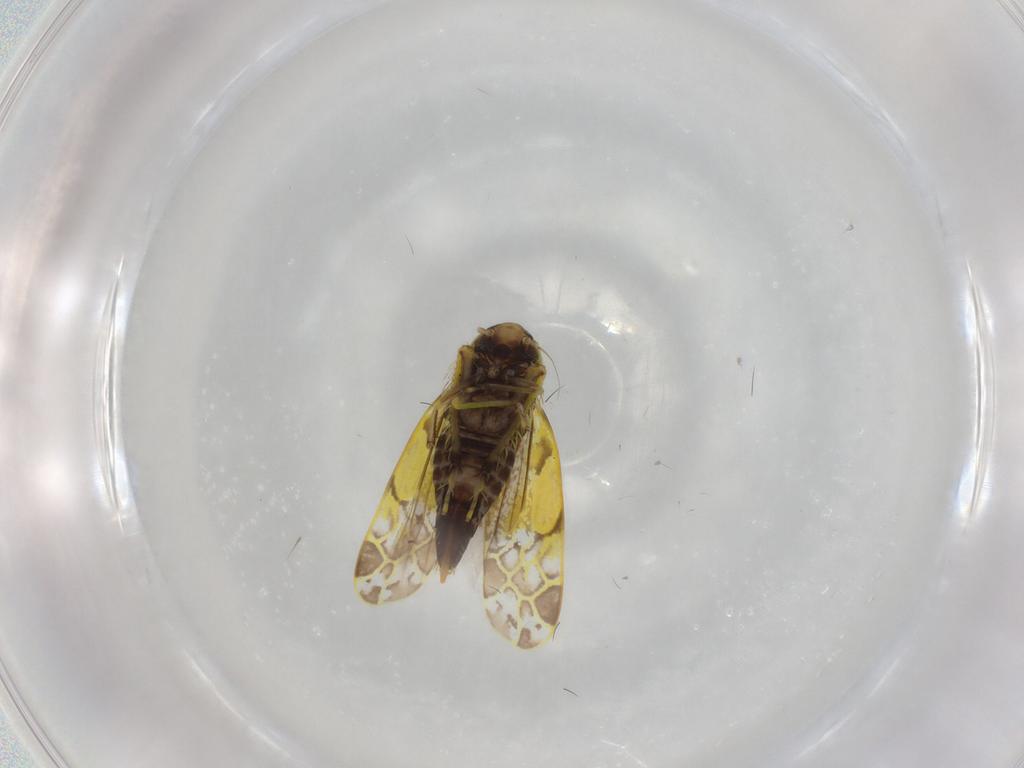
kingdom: Animalia
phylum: Arthropoda
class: Insecta
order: Hemiptera
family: Cicadellidae
